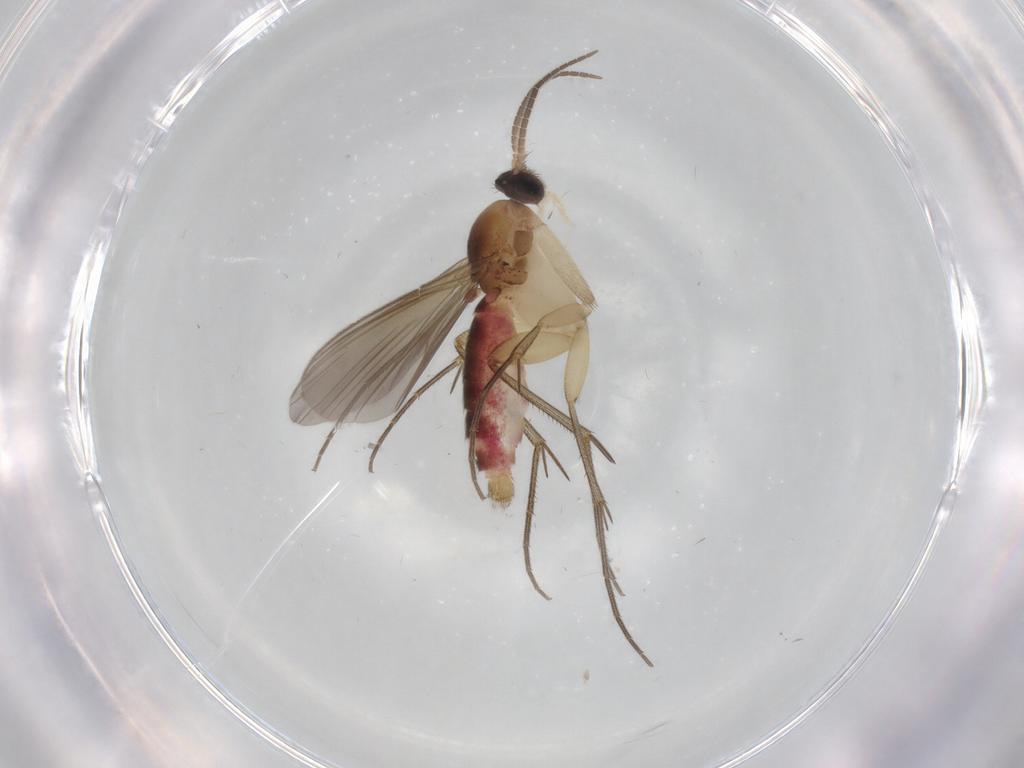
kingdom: Animalia
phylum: Arthropoda
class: Insecta
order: Diptera
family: Mycetophilidae
